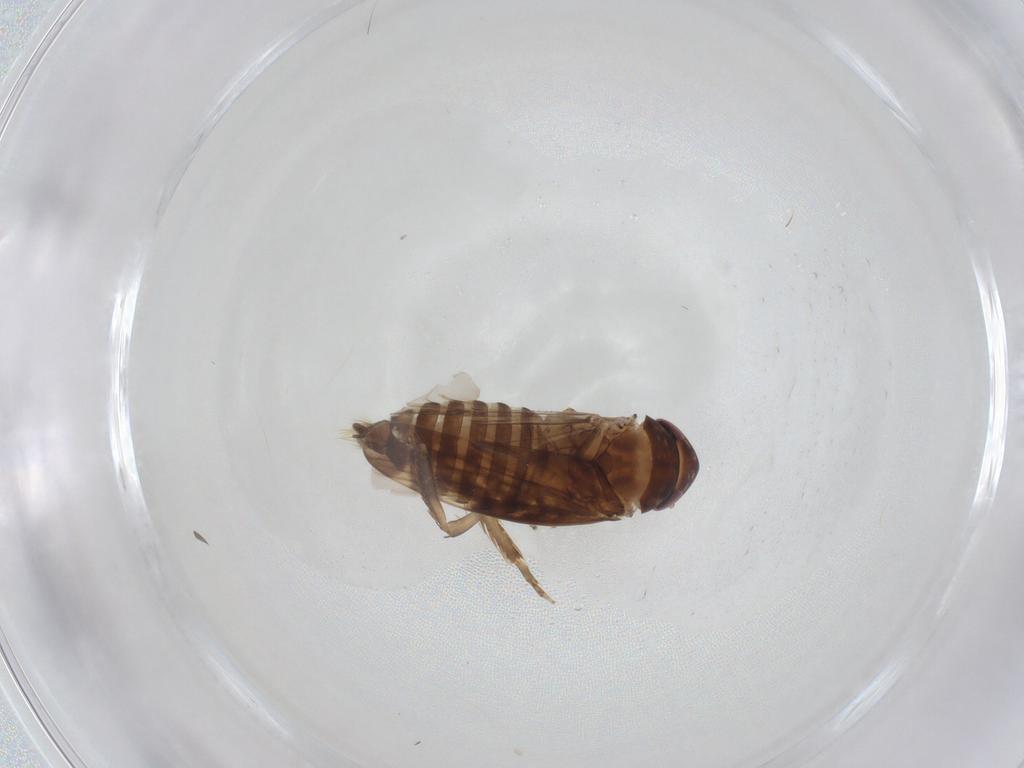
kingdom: Animalia
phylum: Arthropoda
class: Insecta
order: Hemiptera
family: Cicadellidae
